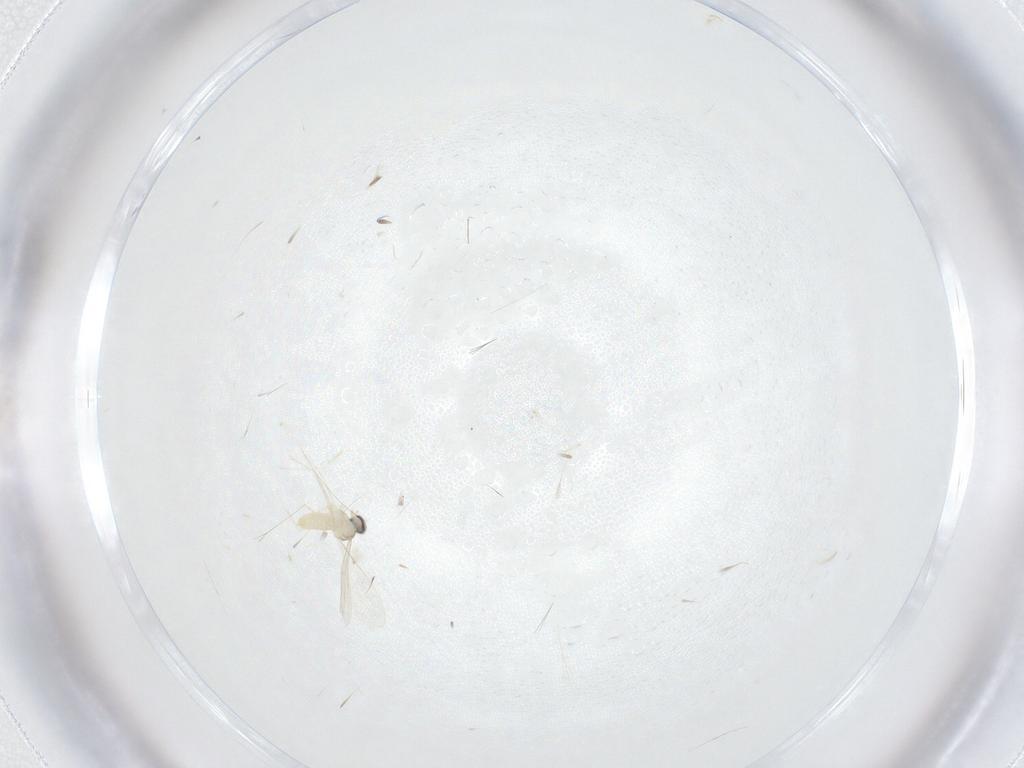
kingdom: Animalia
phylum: Arthropoda
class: Insecta
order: Diptera
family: Cecidomyiidae
